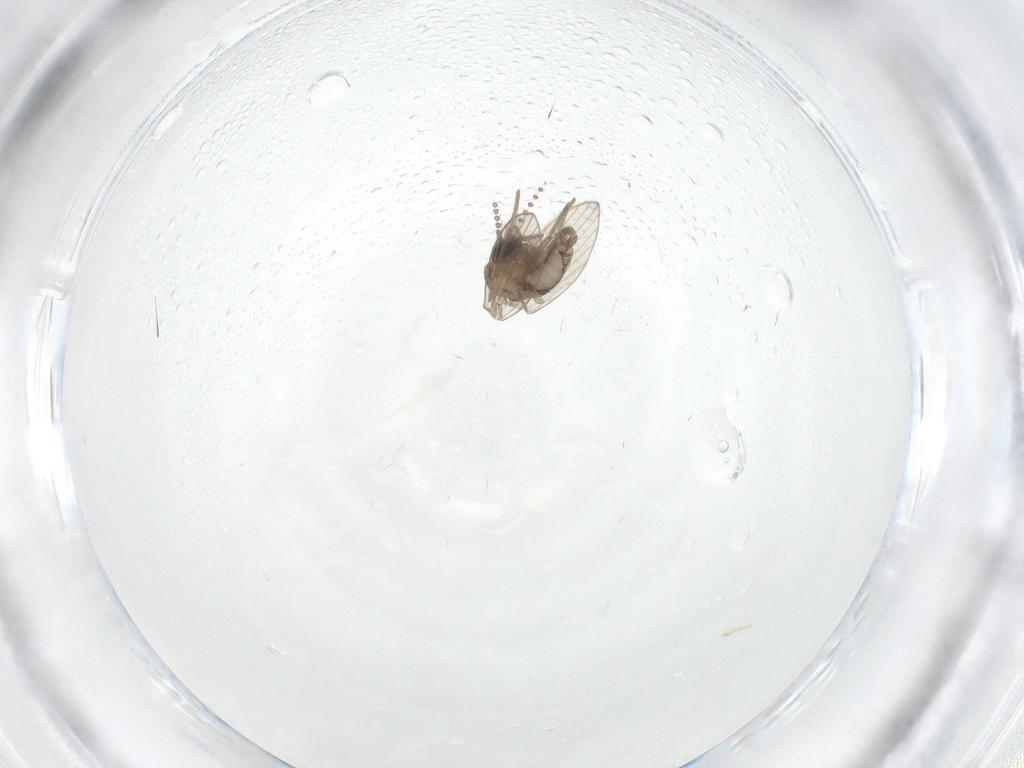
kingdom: Animalia
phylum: Arthropoda
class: Insecta
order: Diptera
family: Psychodidae
